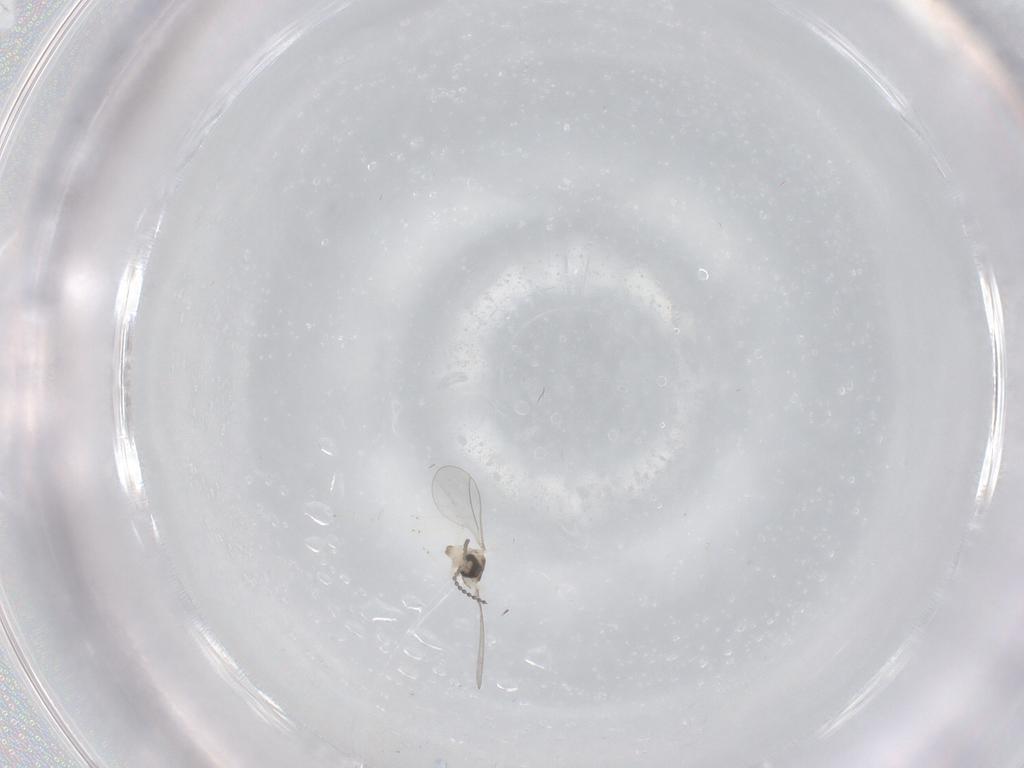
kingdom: Animalia
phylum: Arthropoda
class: Insecta
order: Diptera
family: Cecidomyiidae
